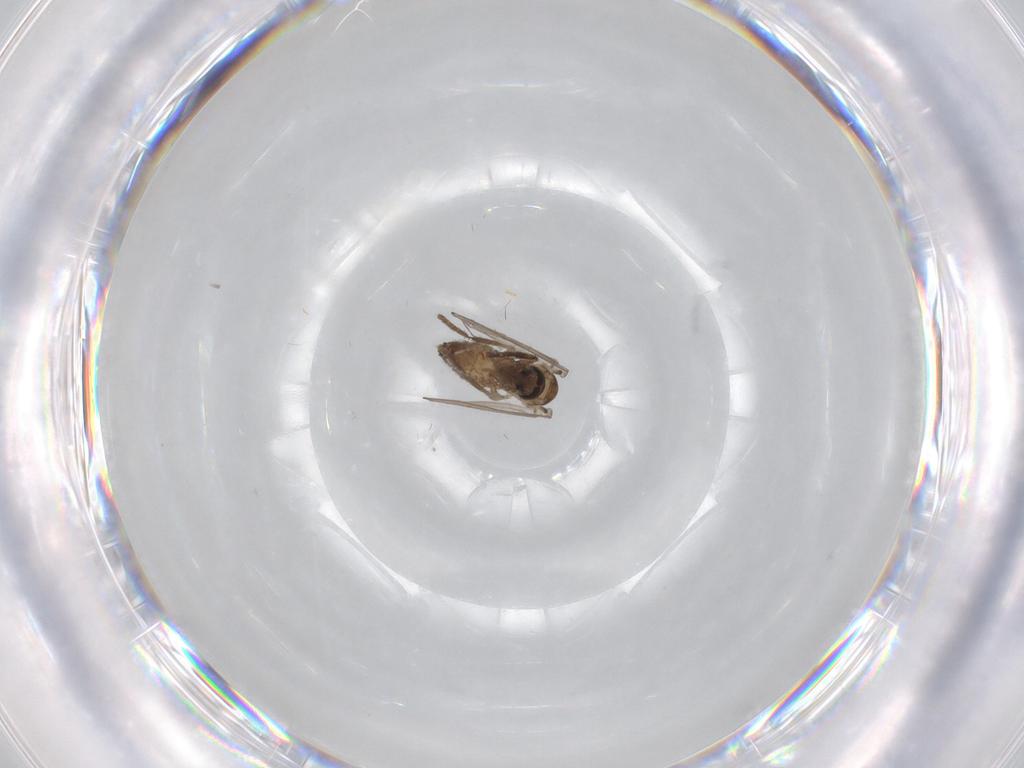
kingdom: Animalia
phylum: Arthropoda
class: Insecta
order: Diptera
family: Psychodidae
